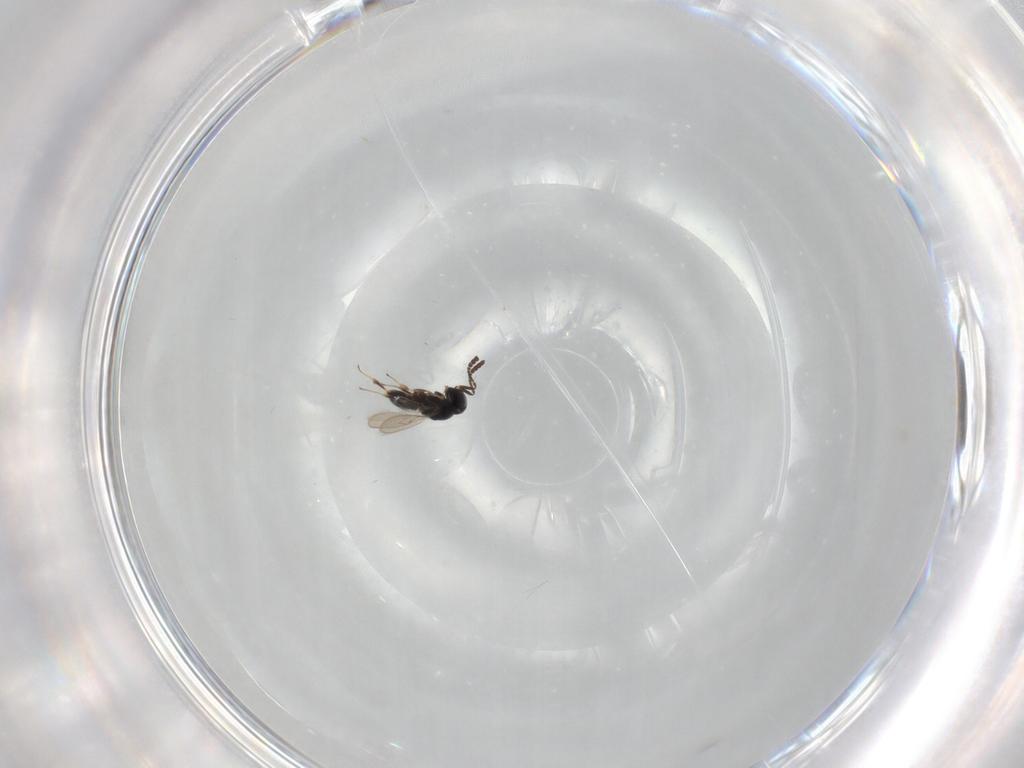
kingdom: Animalia
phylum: Arthropoda
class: Insecta
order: Hymenoptera
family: Scelionidae
